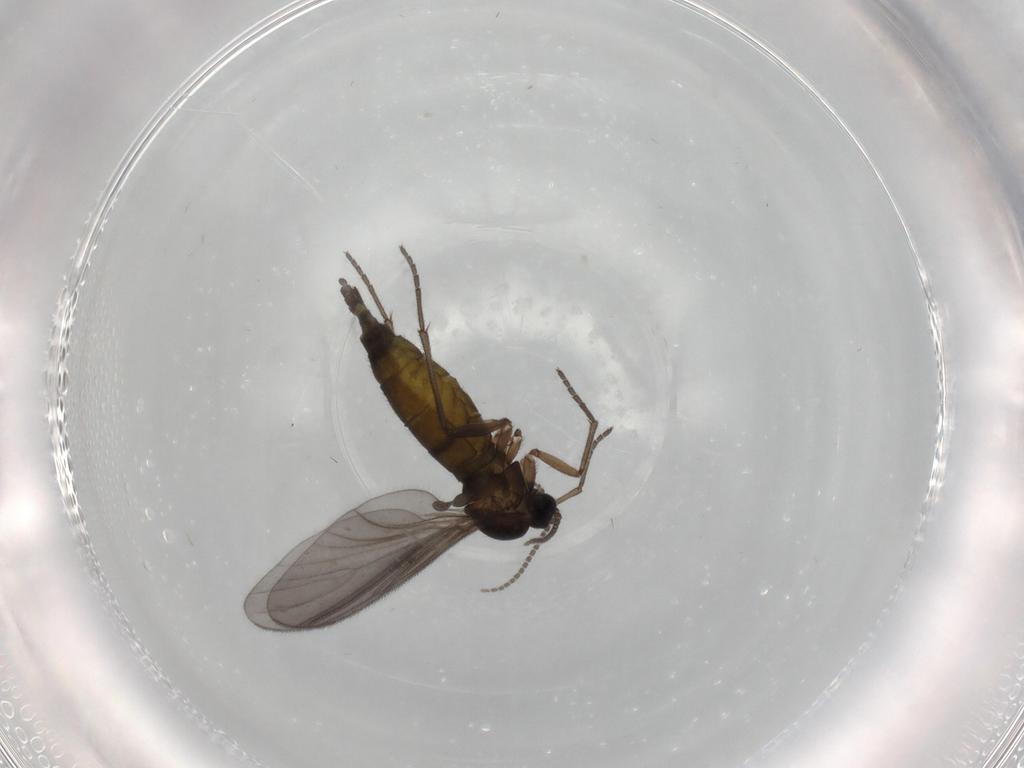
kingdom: Animalia
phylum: Arthropoda
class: Insecta
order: Diptera
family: Sciaridae
